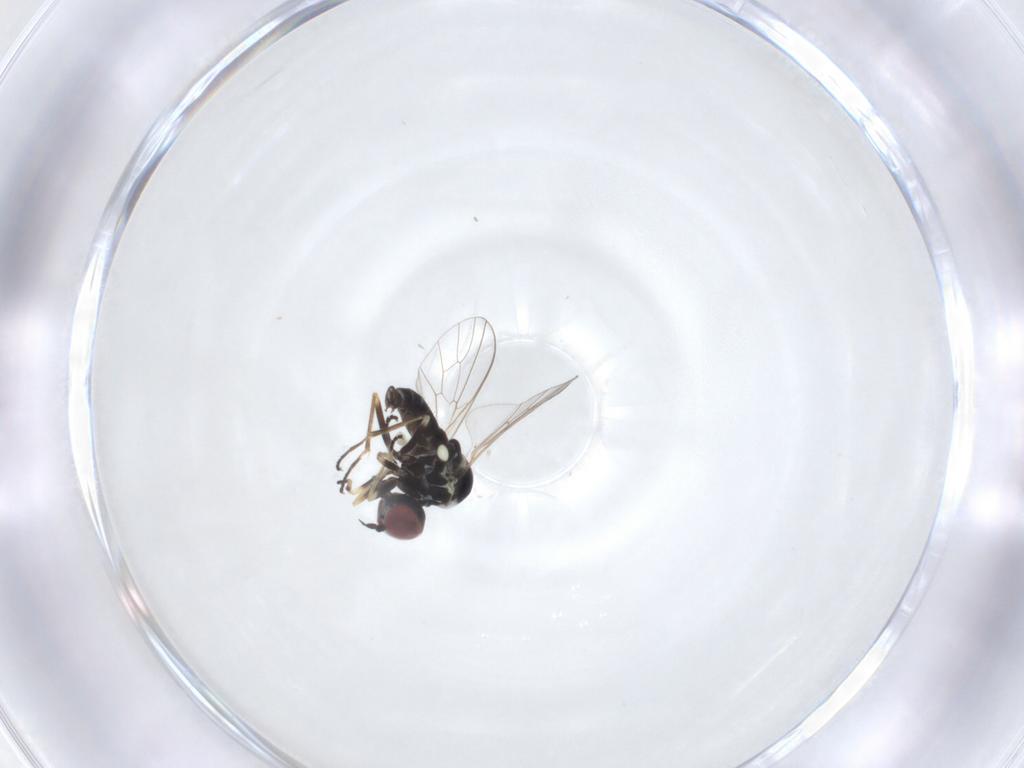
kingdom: Animalia
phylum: Arthropoda
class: Insecta
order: Diptera
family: Mythicomyiidae
